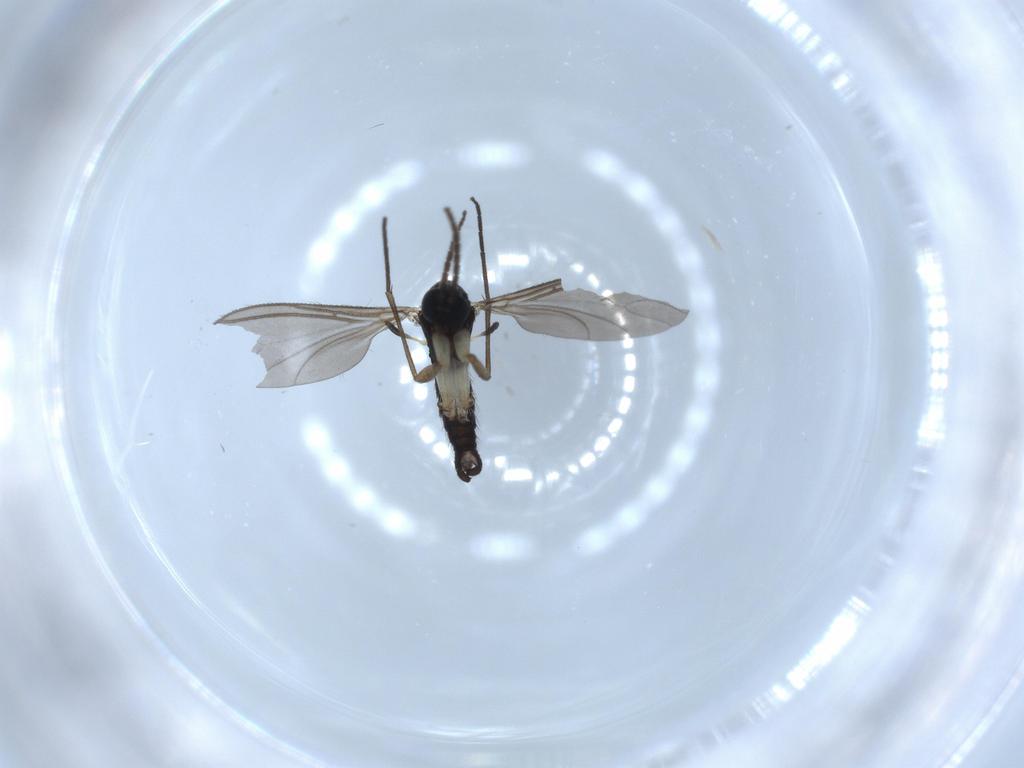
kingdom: Animalia
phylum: Arthropoda
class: Insecta
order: Diptera
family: Sciaridae
